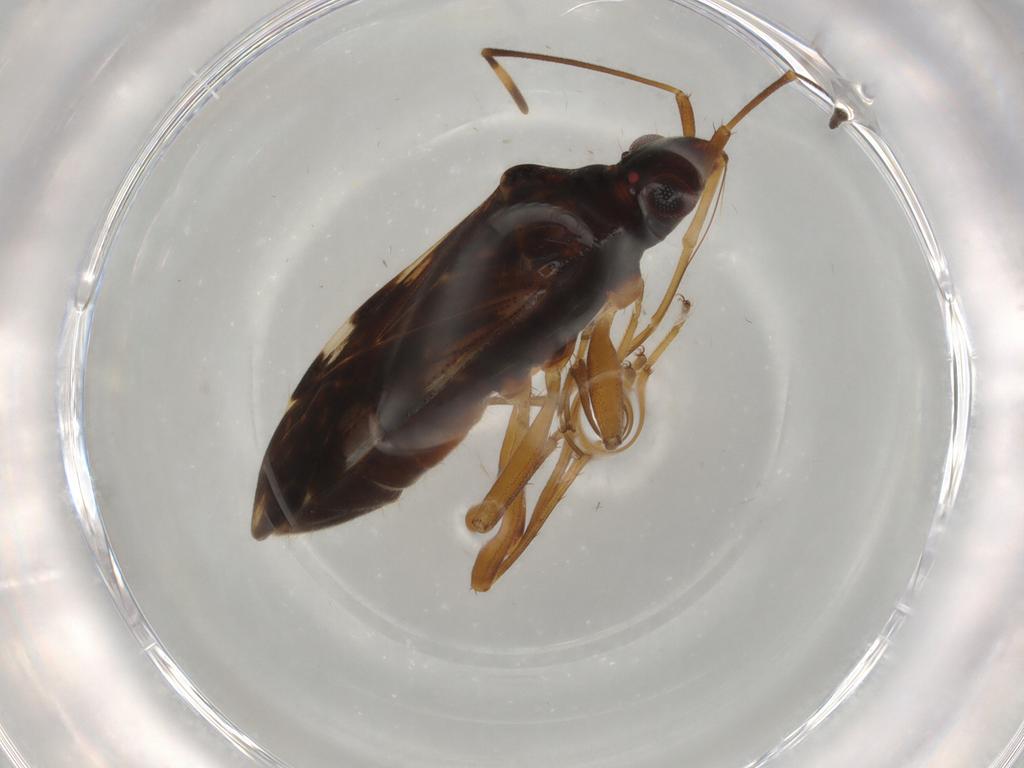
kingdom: Animalia
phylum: Arthropoda
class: Insecta
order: Hemiptera
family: Rhyparochromidae
